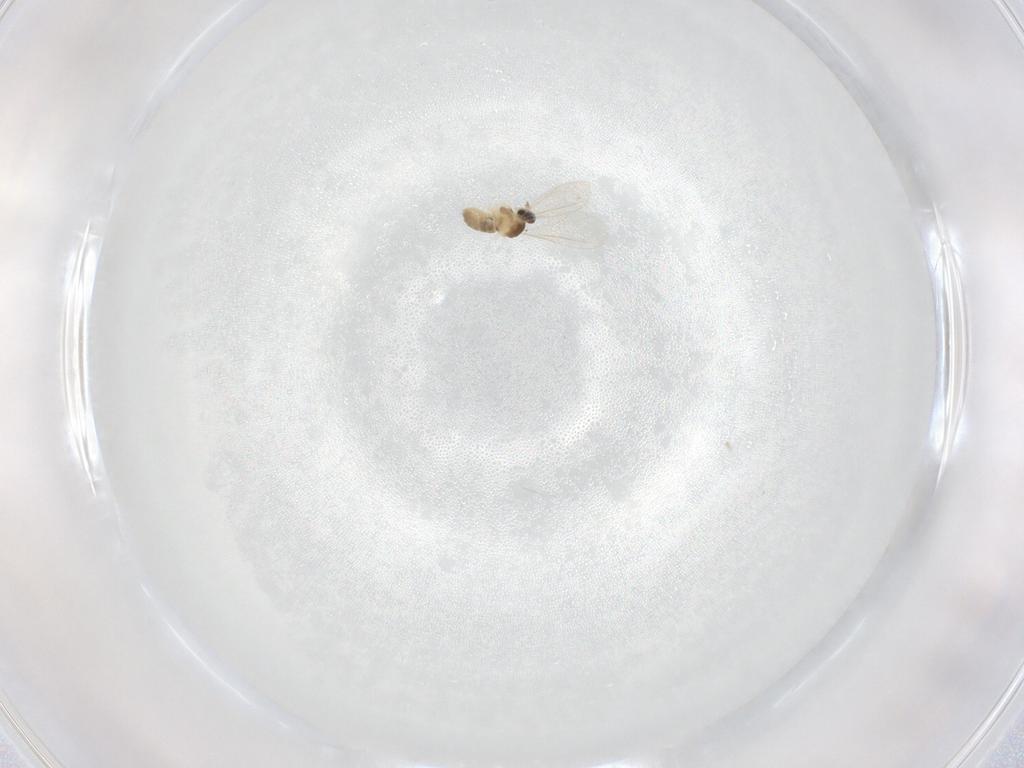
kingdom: Animalia
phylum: Arthropoda
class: Insecta
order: Diptera
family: Cecidomyiidae
